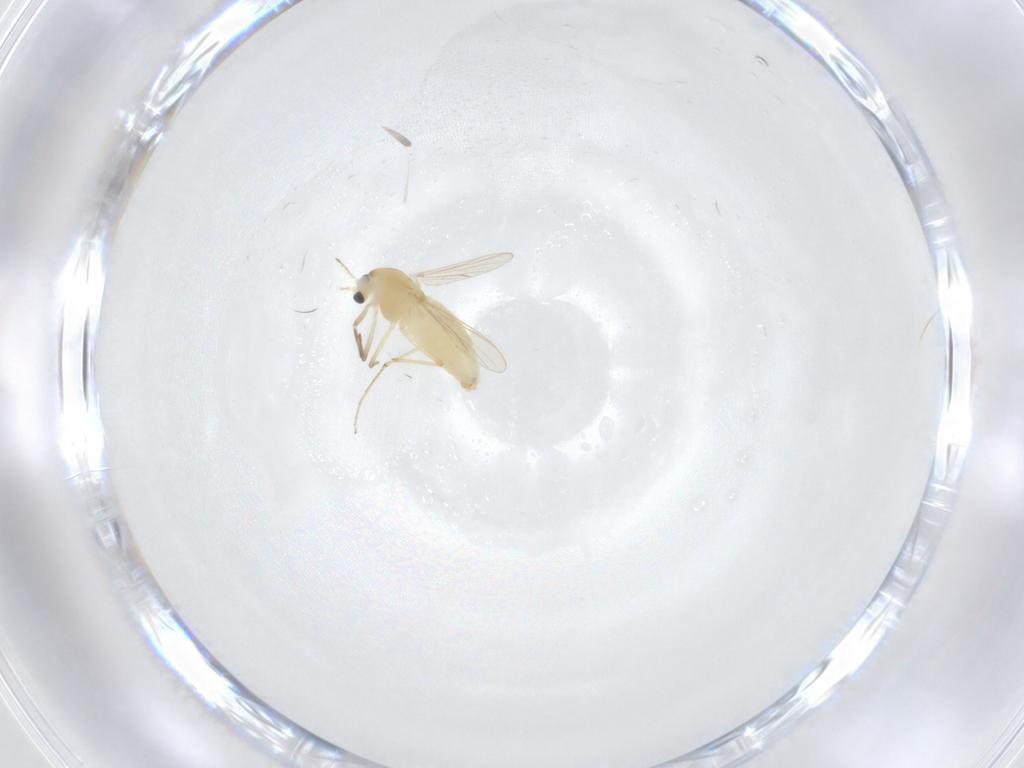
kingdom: Animalia
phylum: Arthropoda
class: Insecta
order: Diptera
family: Chironomidae
